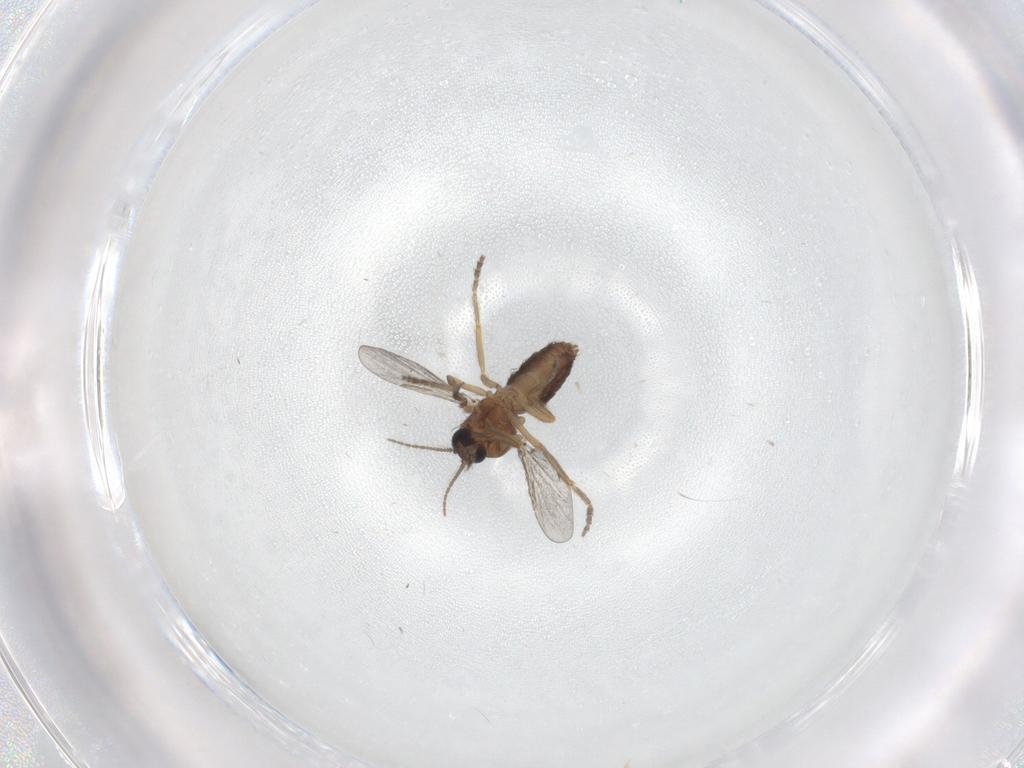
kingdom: Animalia
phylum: Arthropoda
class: Insecta
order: Diptera
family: Ceratopogonidae
